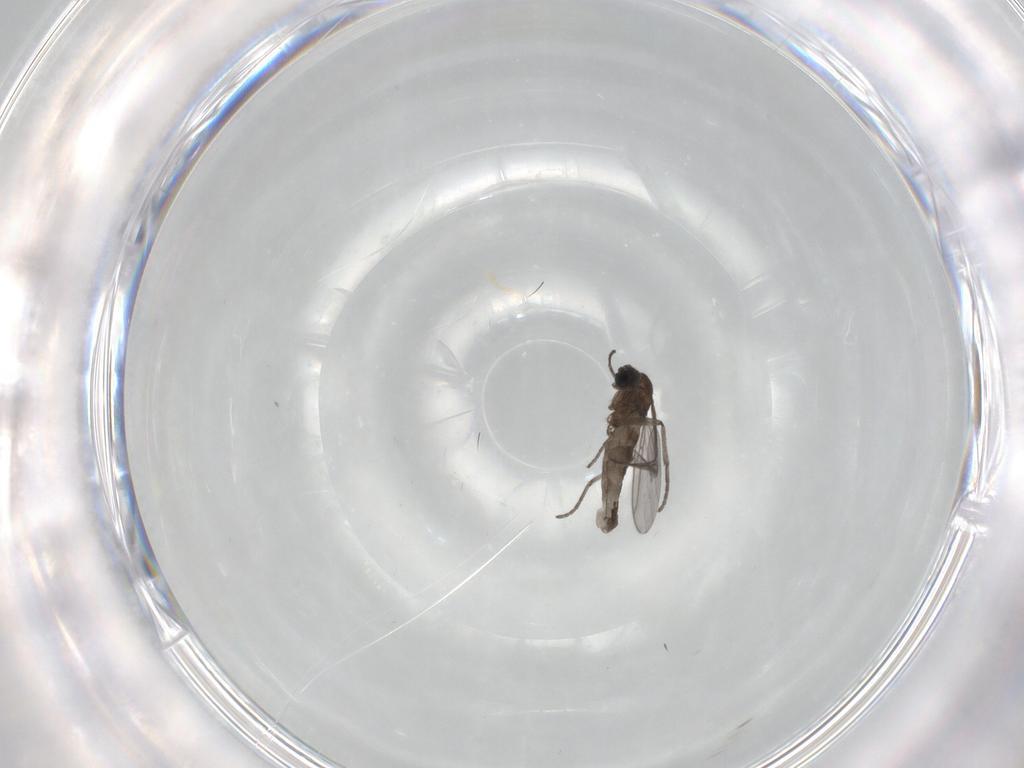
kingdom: Animalia
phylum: Arthropoda
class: Insecta
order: Diptera
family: Sciaridae
